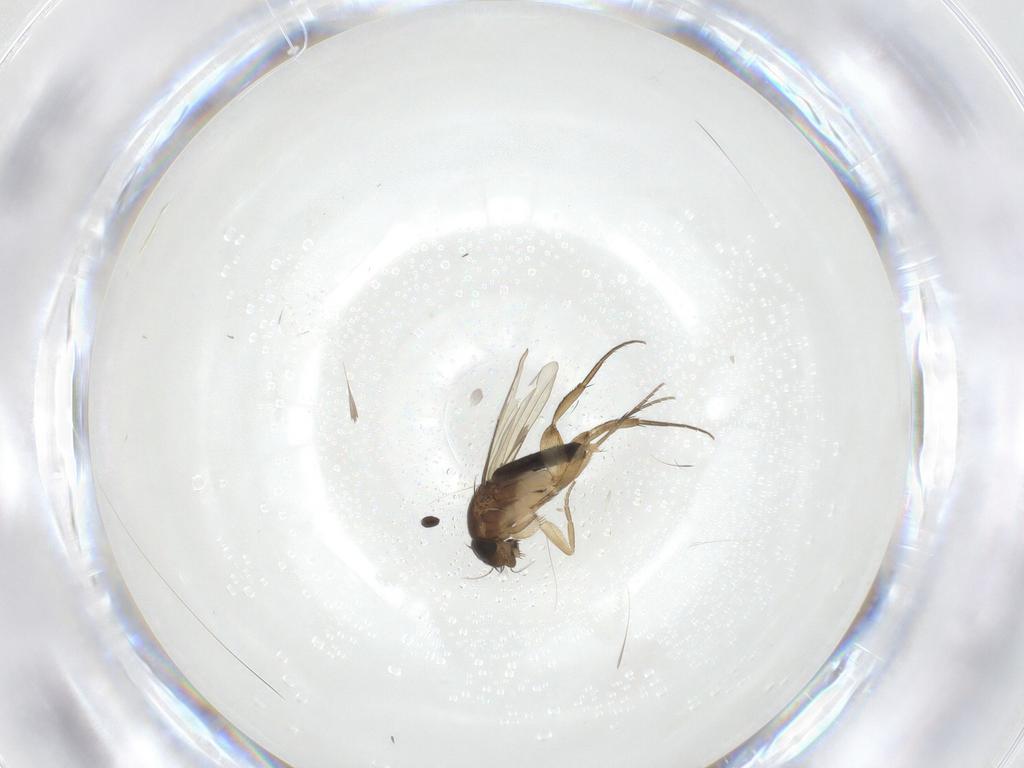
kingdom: Animalia
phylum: Arthropoda
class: Insecta
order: Diptera
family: Phoridae
